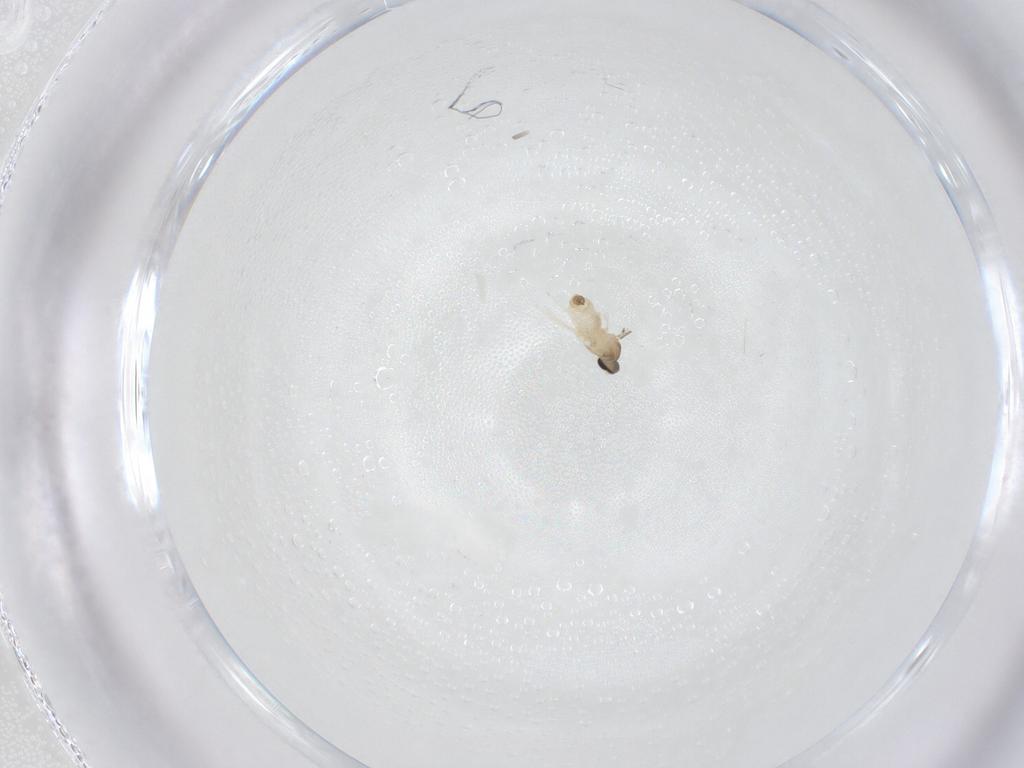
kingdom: Animalia
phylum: Arthropoda
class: Insecta
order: Diptera
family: Cecidomyiidae
